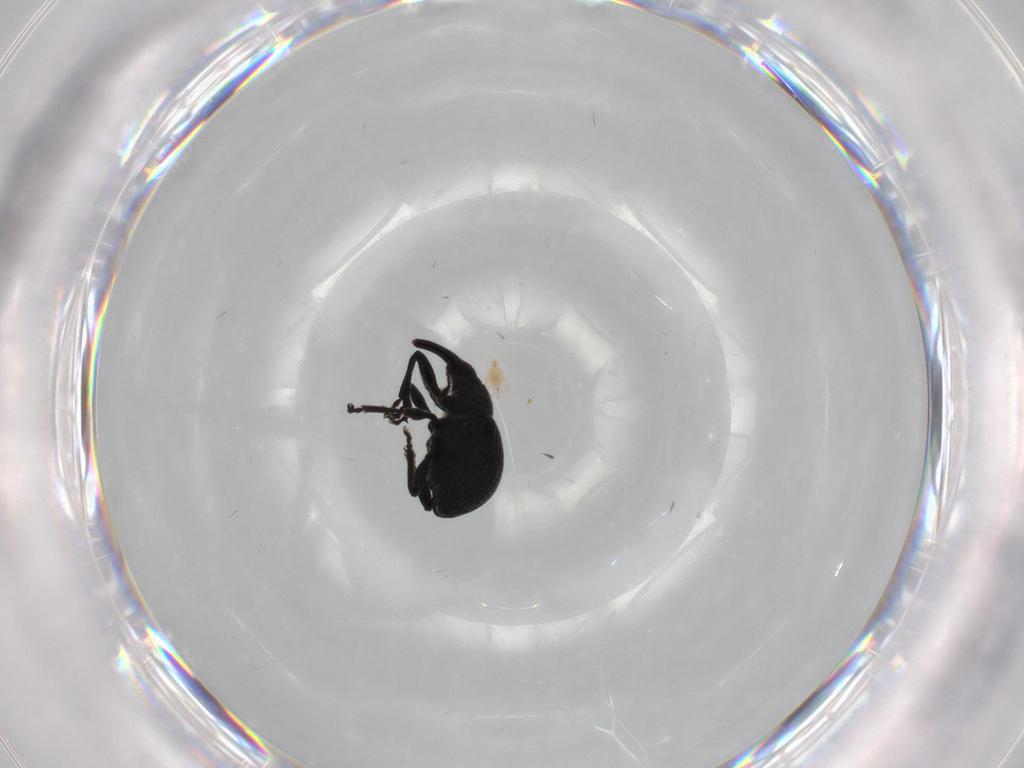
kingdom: Animalia
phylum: Arthropoda
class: Insecta
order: Coleoptera
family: Brentidae
